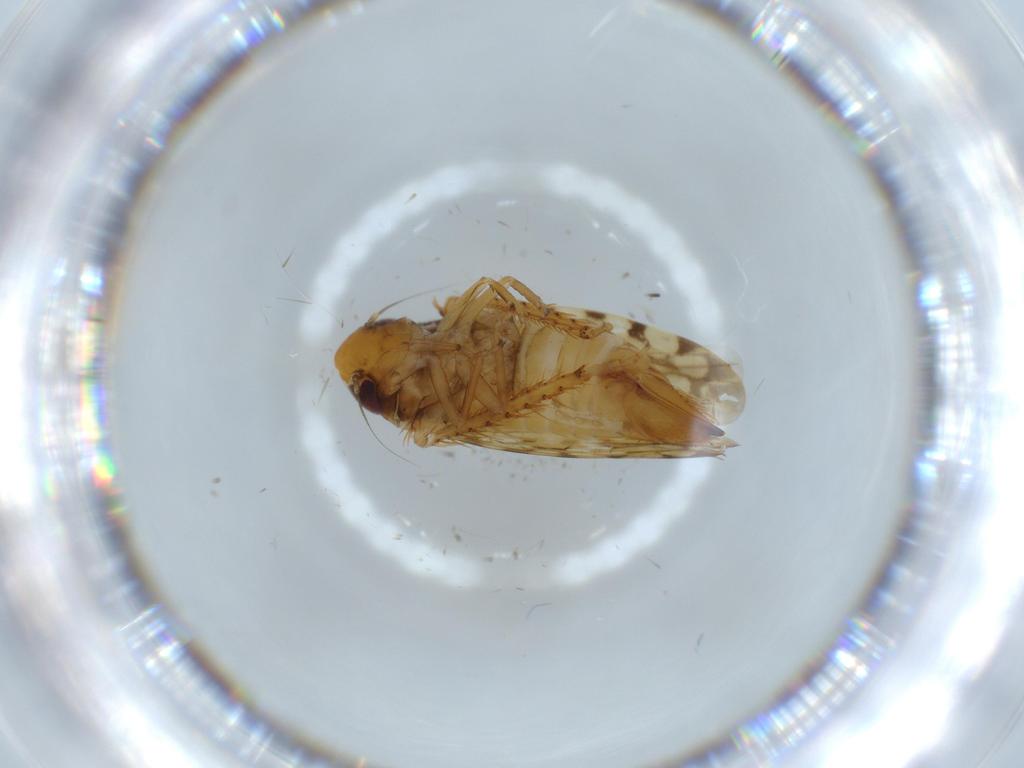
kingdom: Animalia
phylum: Arthropoda
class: Insecta
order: Hemiptera
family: Cicadellidae
